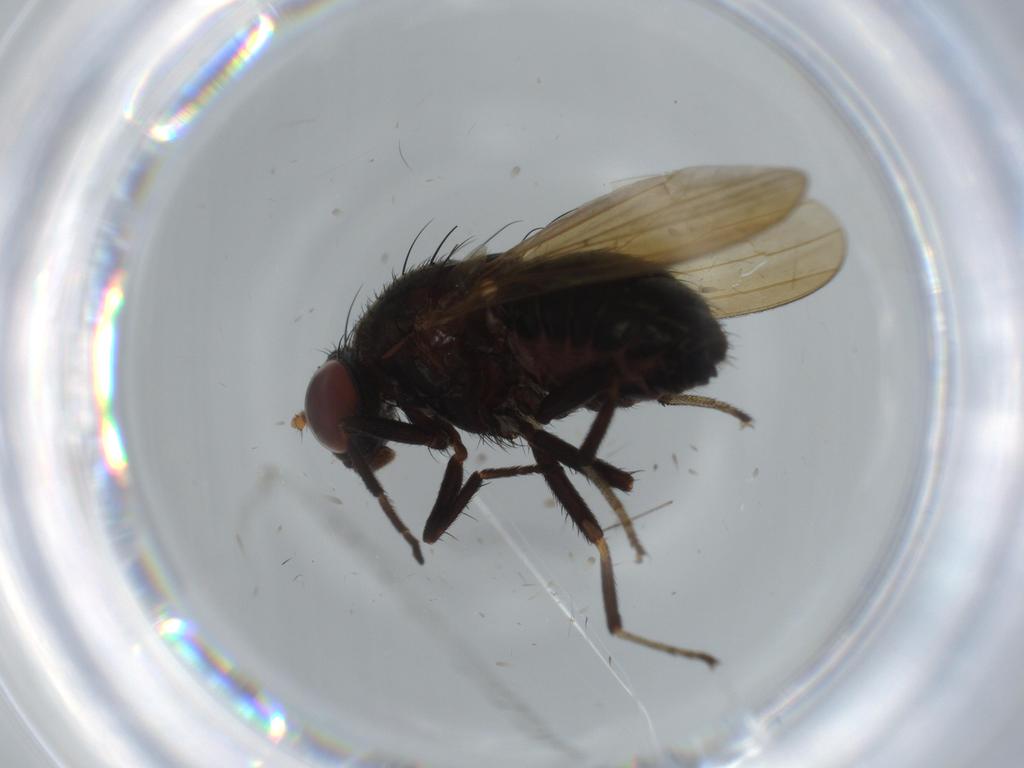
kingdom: Animalia
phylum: Arthropoda
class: Insecta
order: Diptera
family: Lauxaniidae
